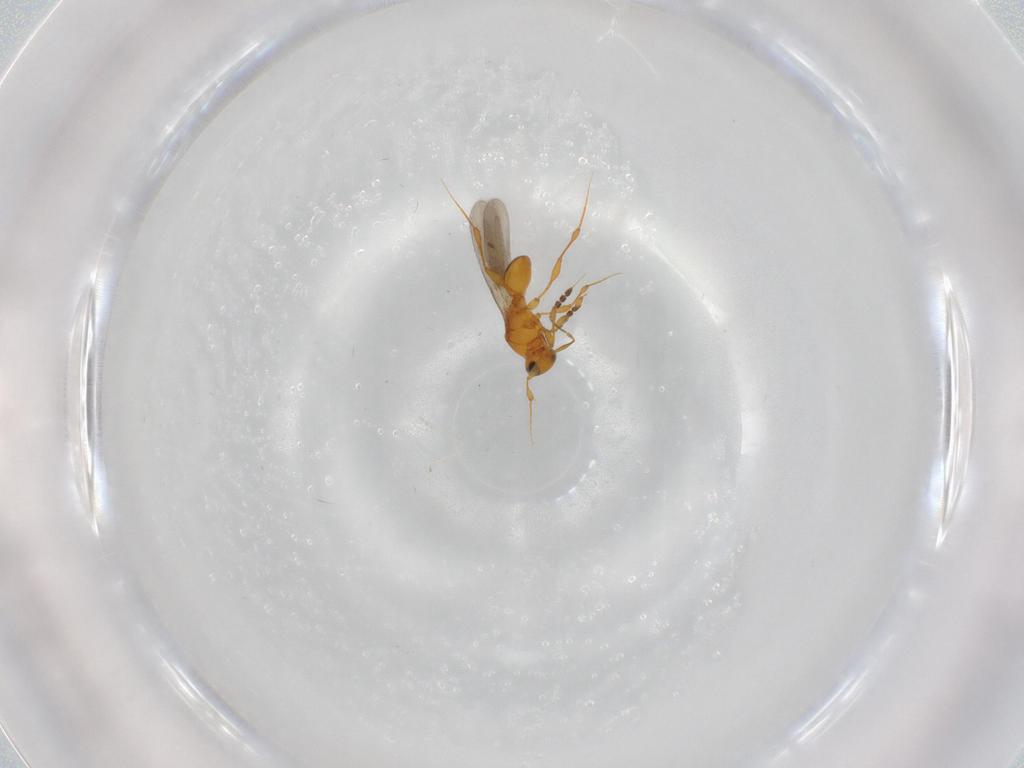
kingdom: Animalia
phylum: Arthropoda
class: Insecta
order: Hymenoptera
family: Platygastridae
